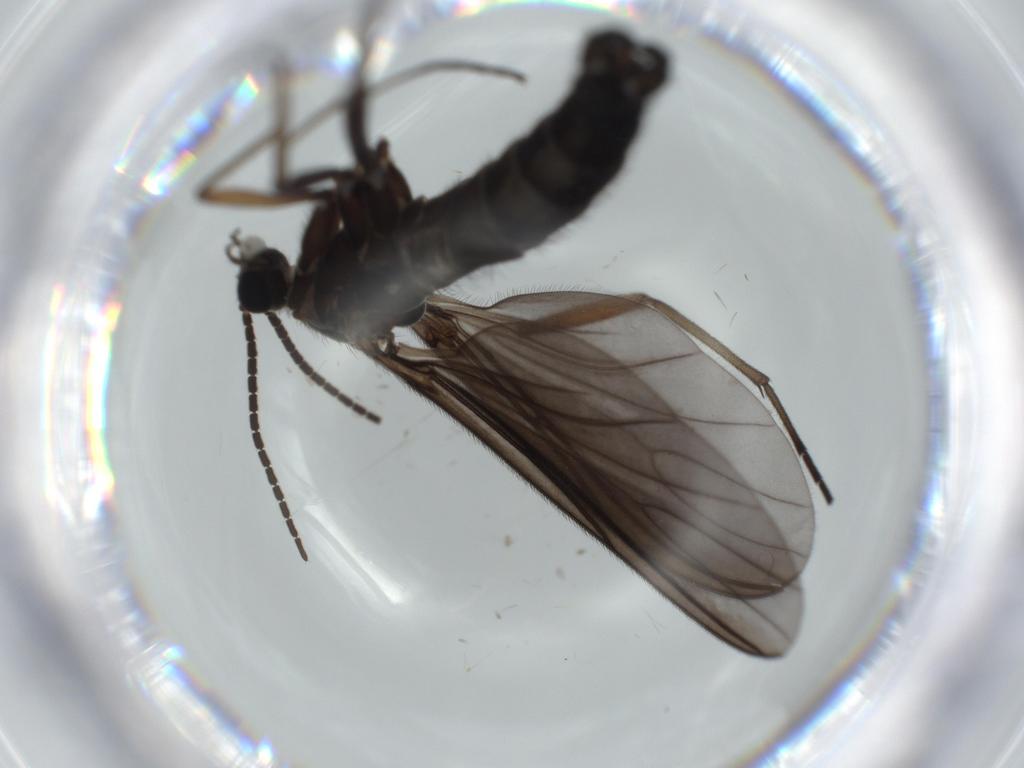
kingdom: Animalia
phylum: Arthropoda
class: Insecta
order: Diptera
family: Sciaridae
